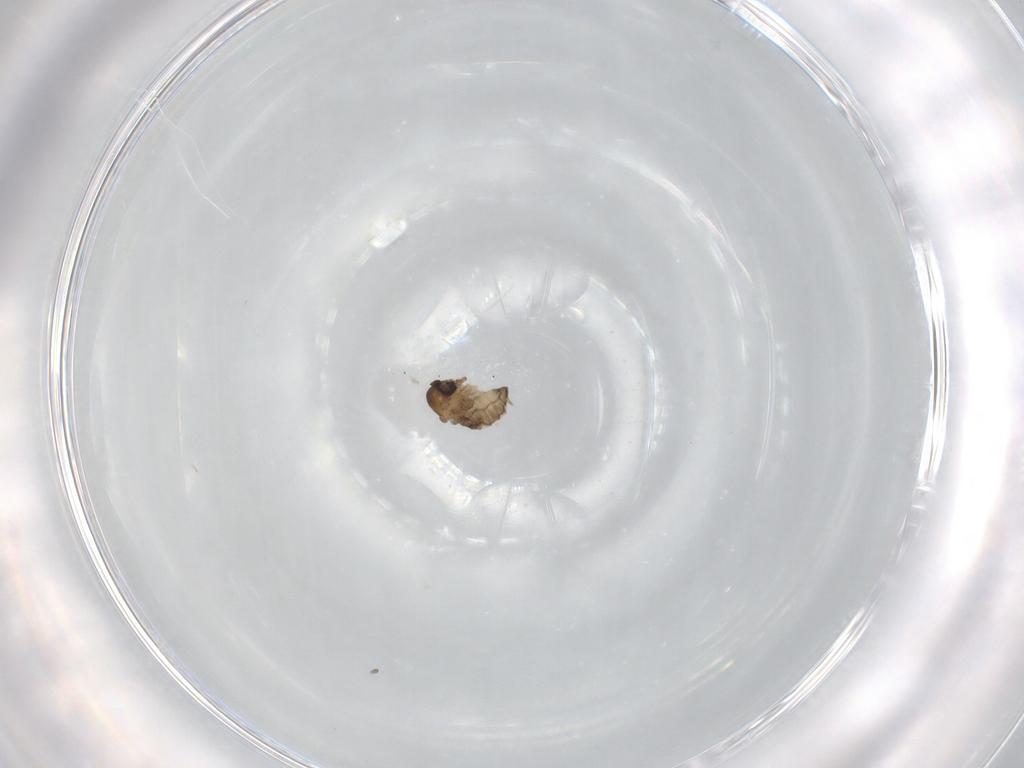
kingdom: Animalia
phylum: Arthropoda
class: Insecta
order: Diptera
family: Psychodidae
